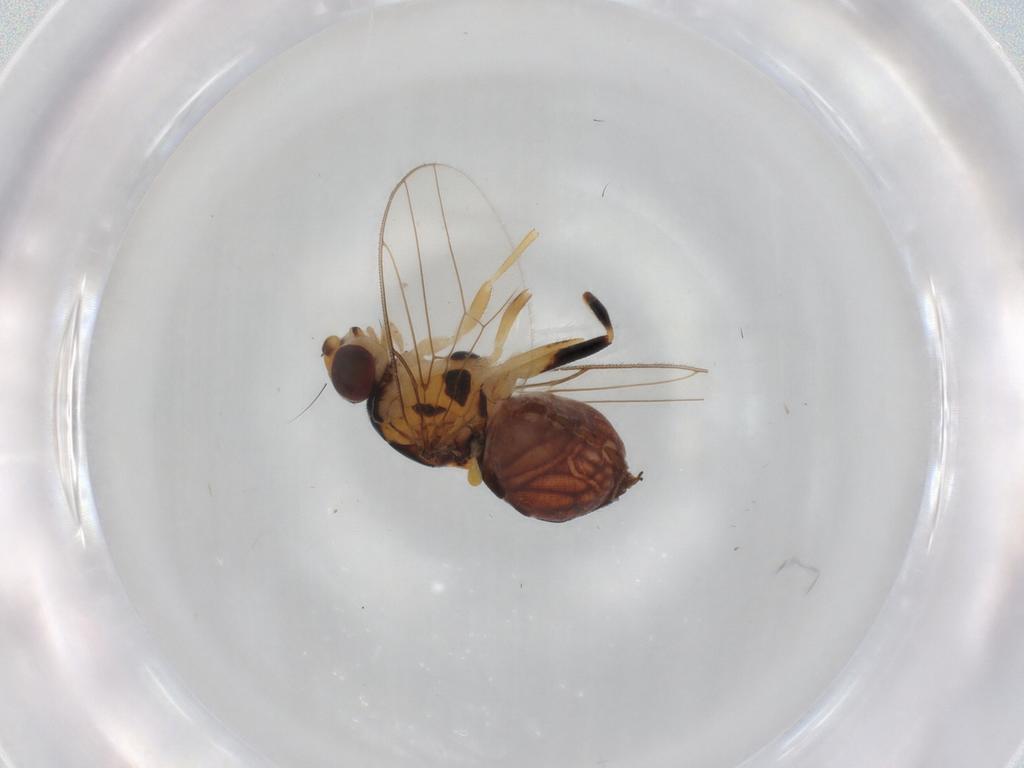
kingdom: Animalia
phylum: Arthropoda
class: Insecta
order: Diptera
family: Chloropidae
